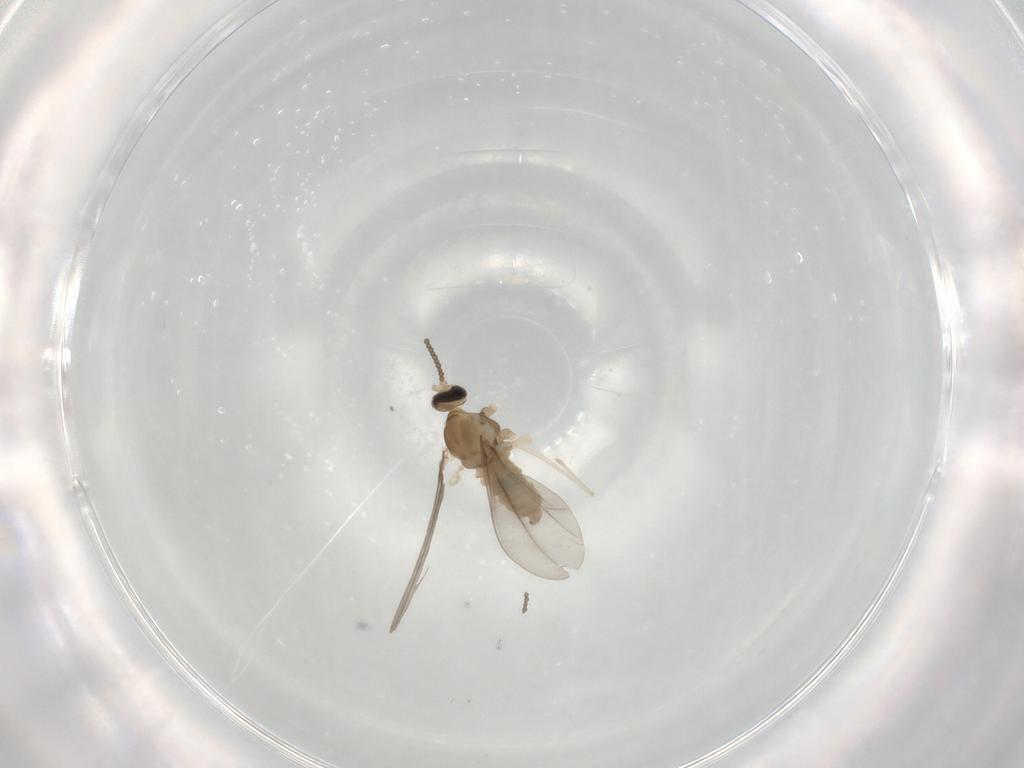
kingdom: Animalia
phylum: Arthropoda
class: Insecta
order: Diptera
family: Cecidomyiidae
